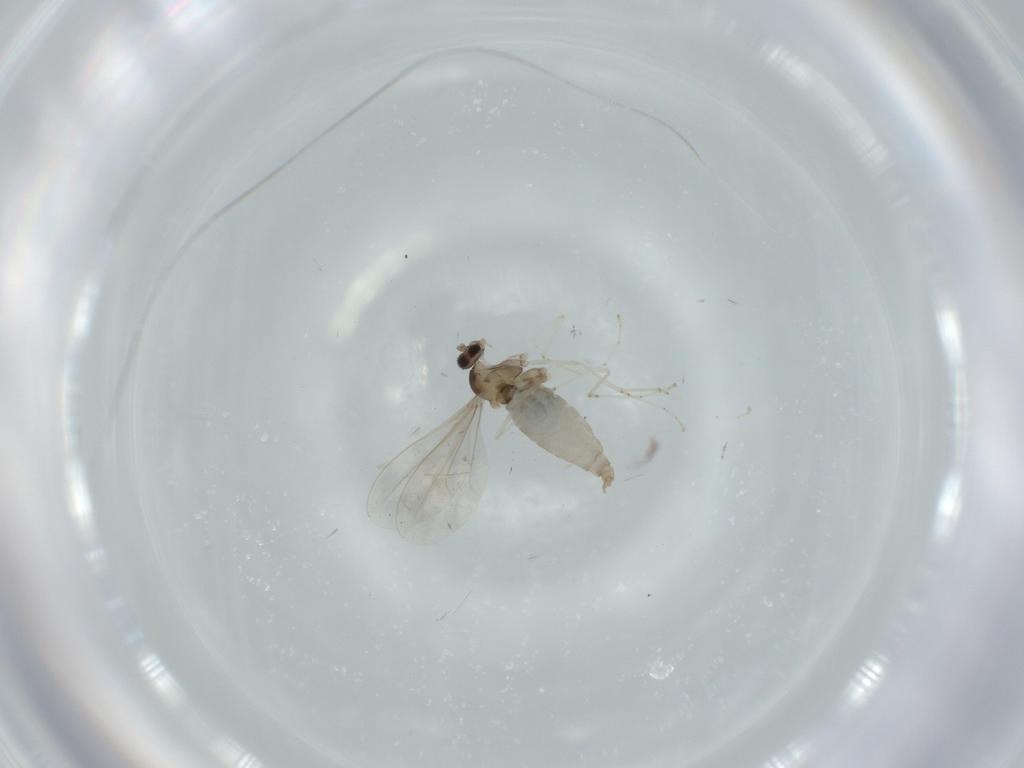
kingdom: Animalia
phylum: Arthropoda
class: Insecta
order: Diptera
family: Cecidomyiidae
